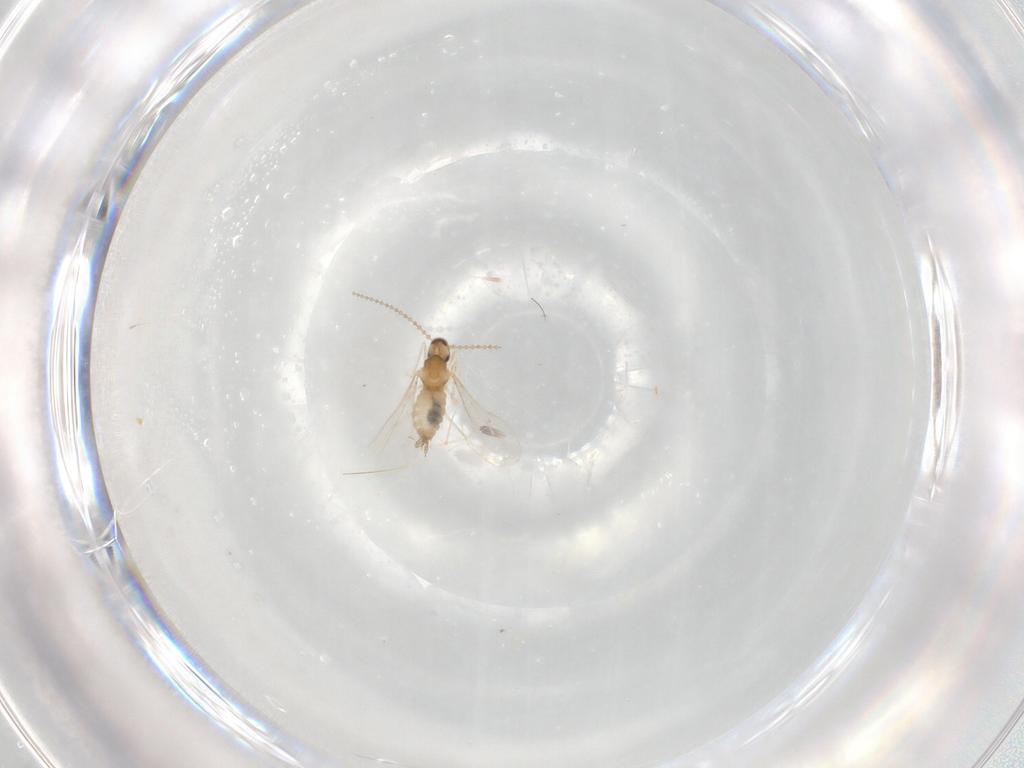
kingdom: Animalia
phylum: Arthropoda
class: Insecta
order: Diptera
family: Cecidomyiidae
